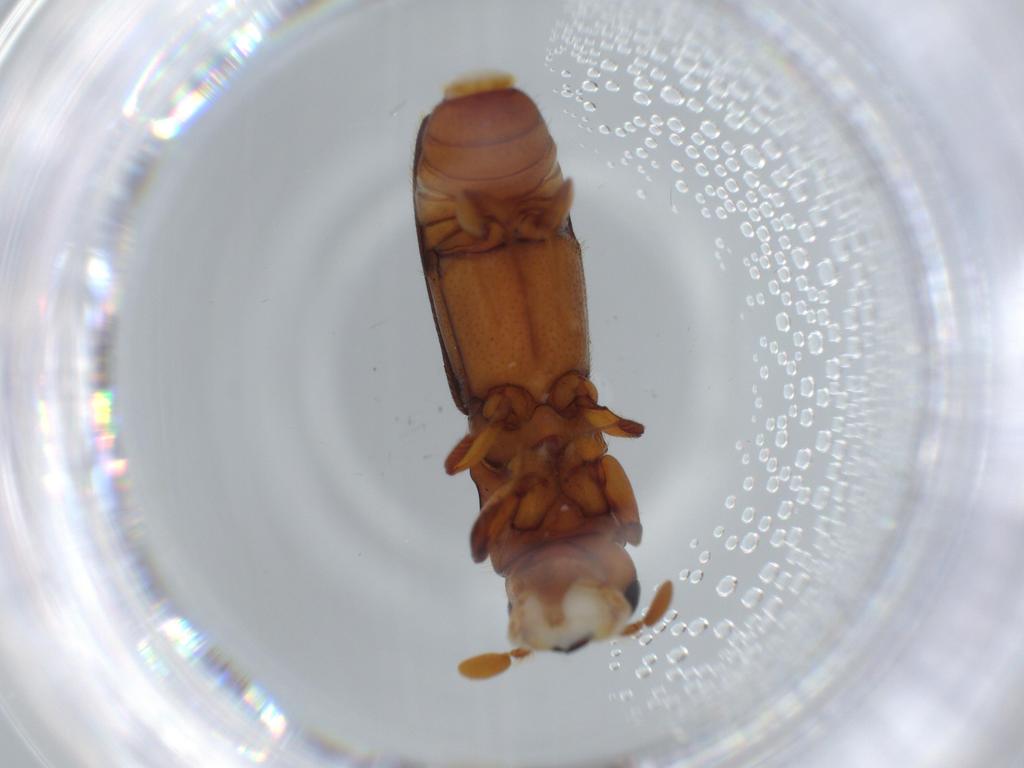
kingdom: Animalia
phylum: Arthropoda
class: Insecta
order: Coleoptera
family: Curculionidae
